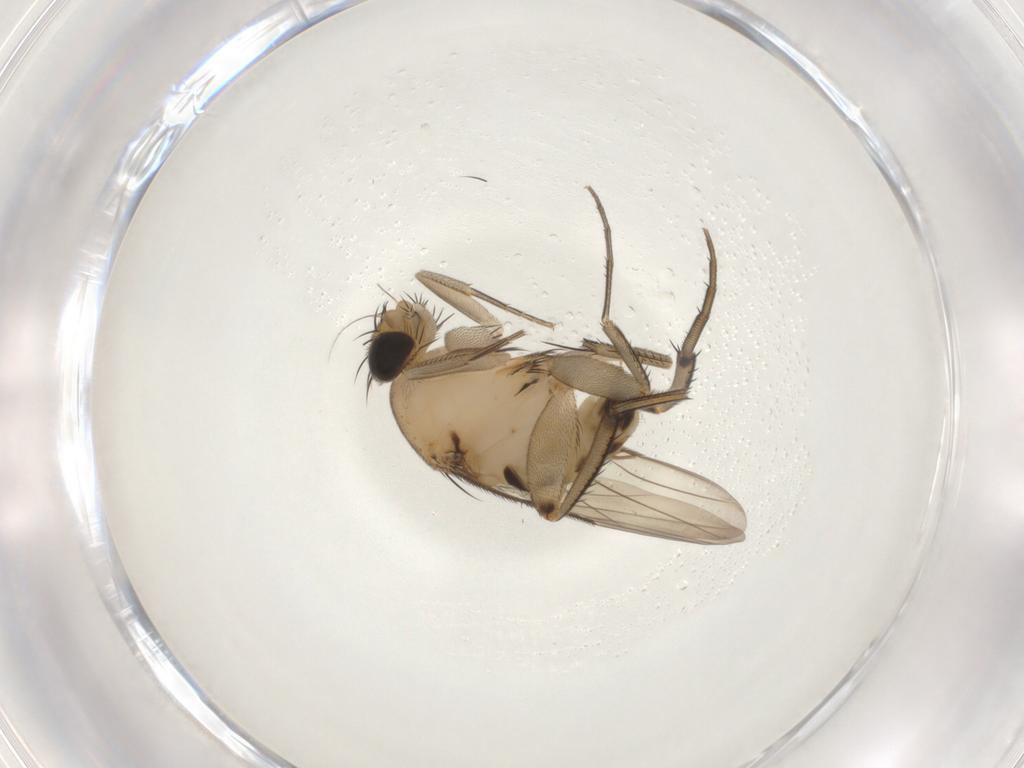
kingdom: Animalia
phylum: Arthropoda
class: Insecta
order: Diptera
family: Phoridae
